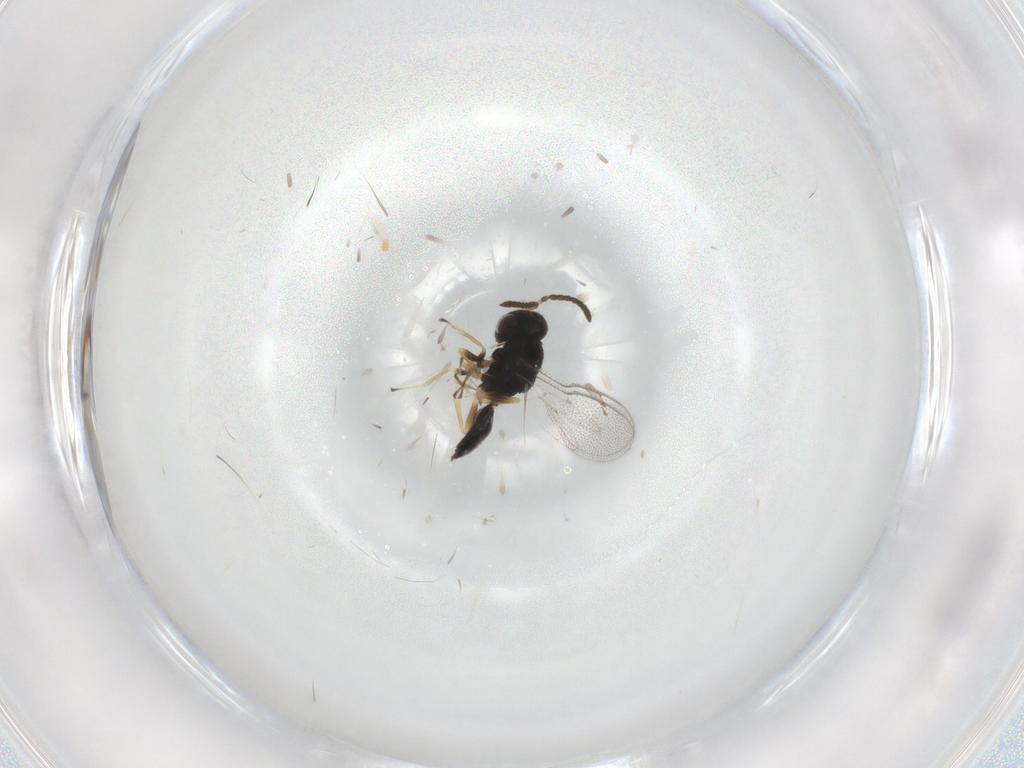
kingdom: Animalia
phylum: Arthropoda
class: Insecta
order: Hymenoptera
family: Pteromalidae
